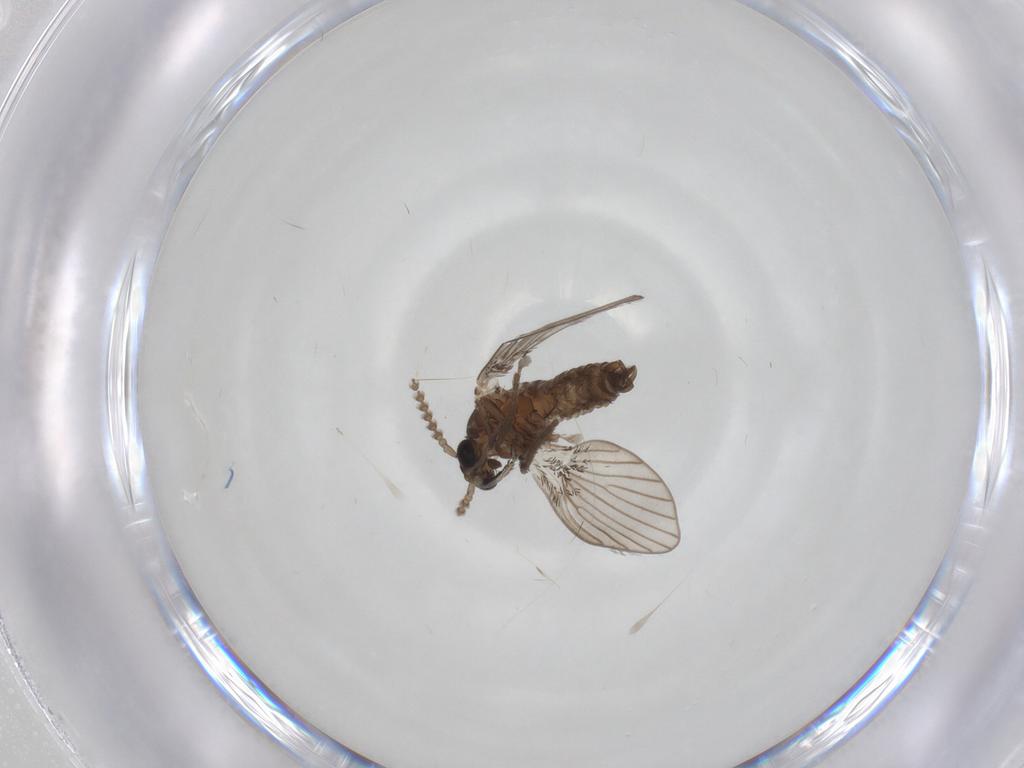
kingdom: Animalia
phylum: Arthropoda
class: Insecta
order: Diptera
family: Psychodidae
